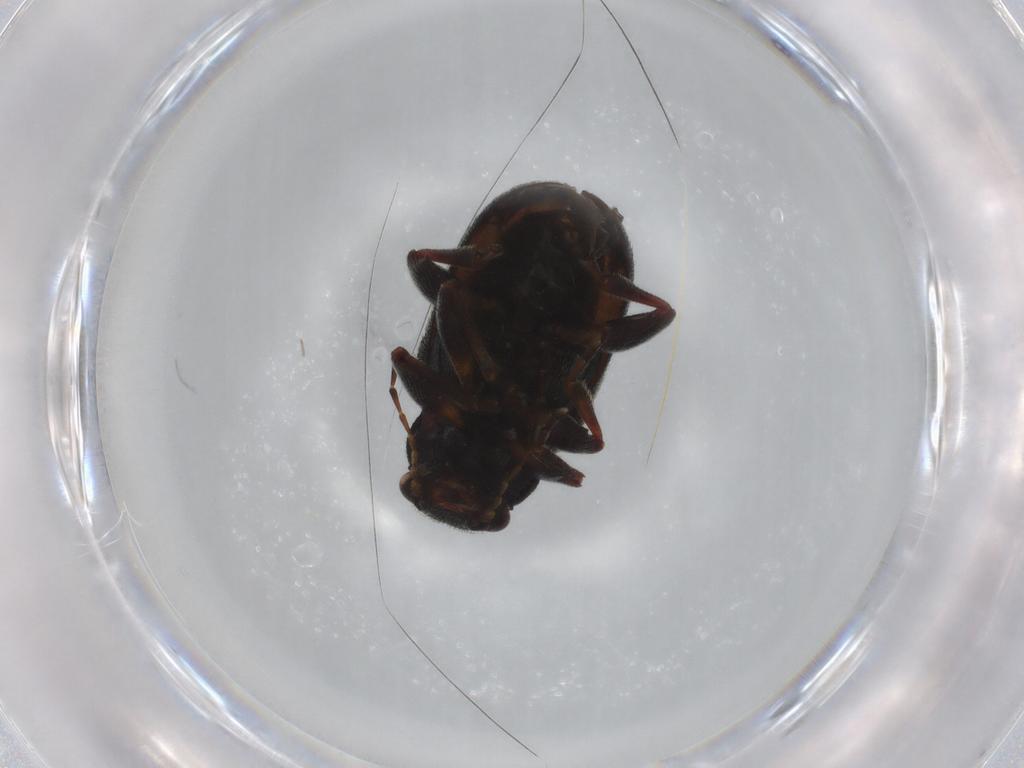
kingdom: Animalia
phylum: Arthropoda
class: Insecta
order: Coleoptera
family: Chrysomelidae
